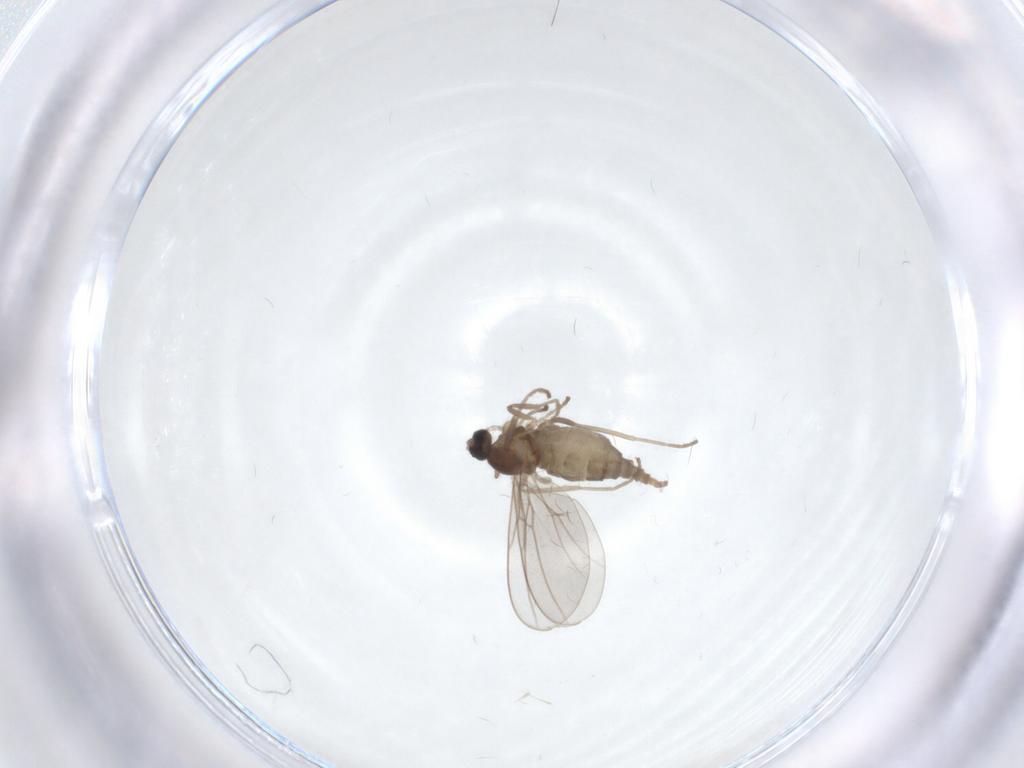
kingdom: Animalia
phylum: Arthropoda
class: Insecta
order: Diptera
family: Cecidomyiidae
